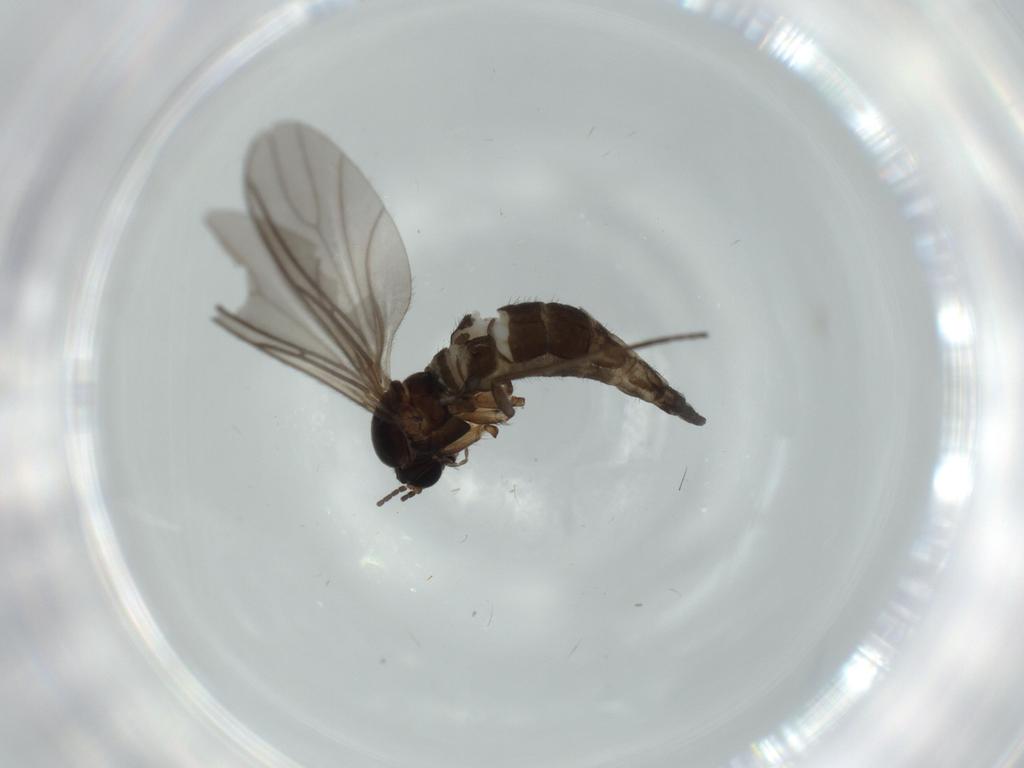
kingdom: Animalia
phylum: Arthropoda
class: Insecta
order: Diptera
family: Sciaridae
